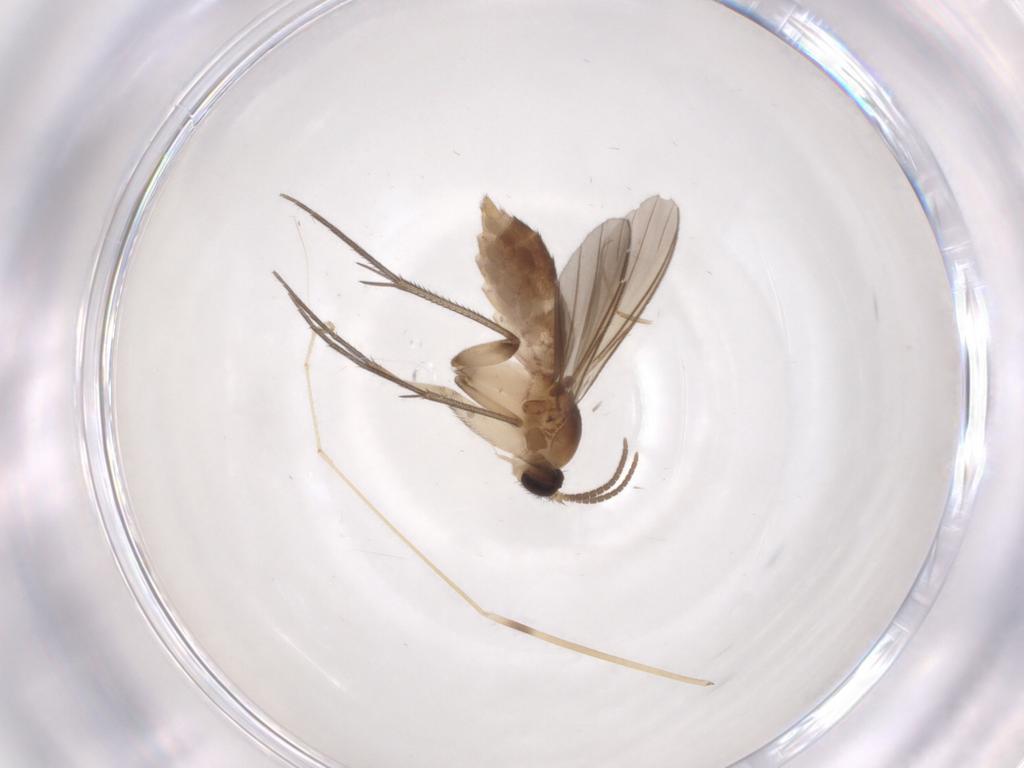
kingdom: Animalia
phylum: Arthropoda
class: Insecta
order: Diptera
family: Mycetophilidae
